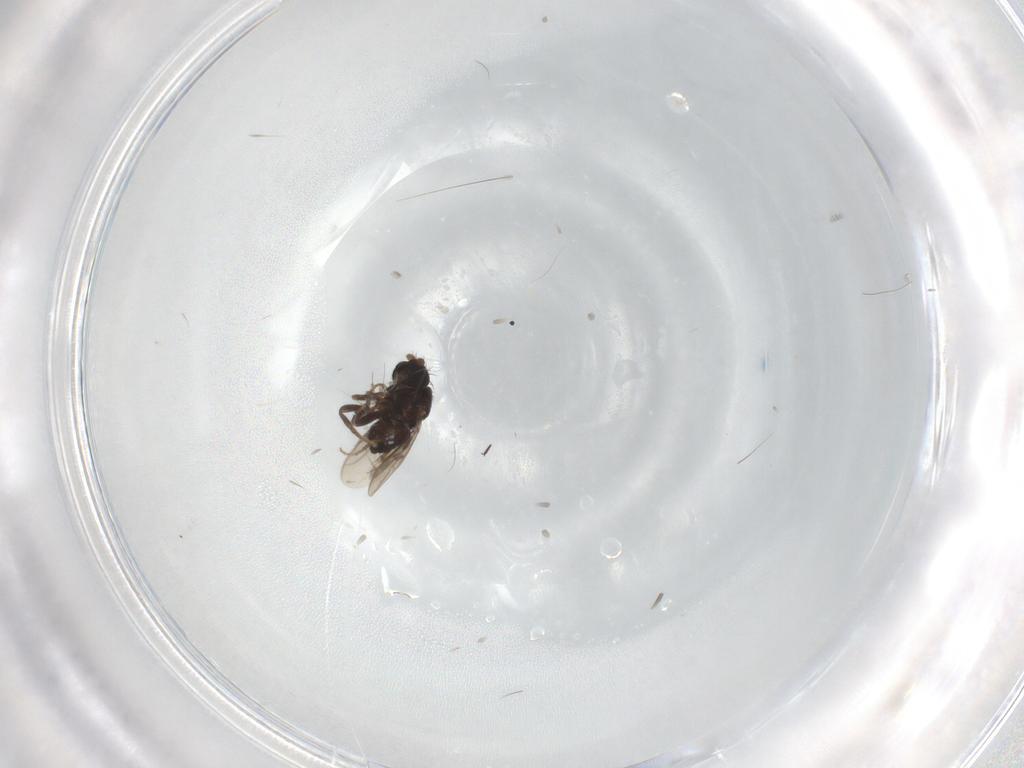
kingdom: Animalia
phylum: Arthropoda
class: Insecta
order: Diptera
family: Sphaeroceridae
